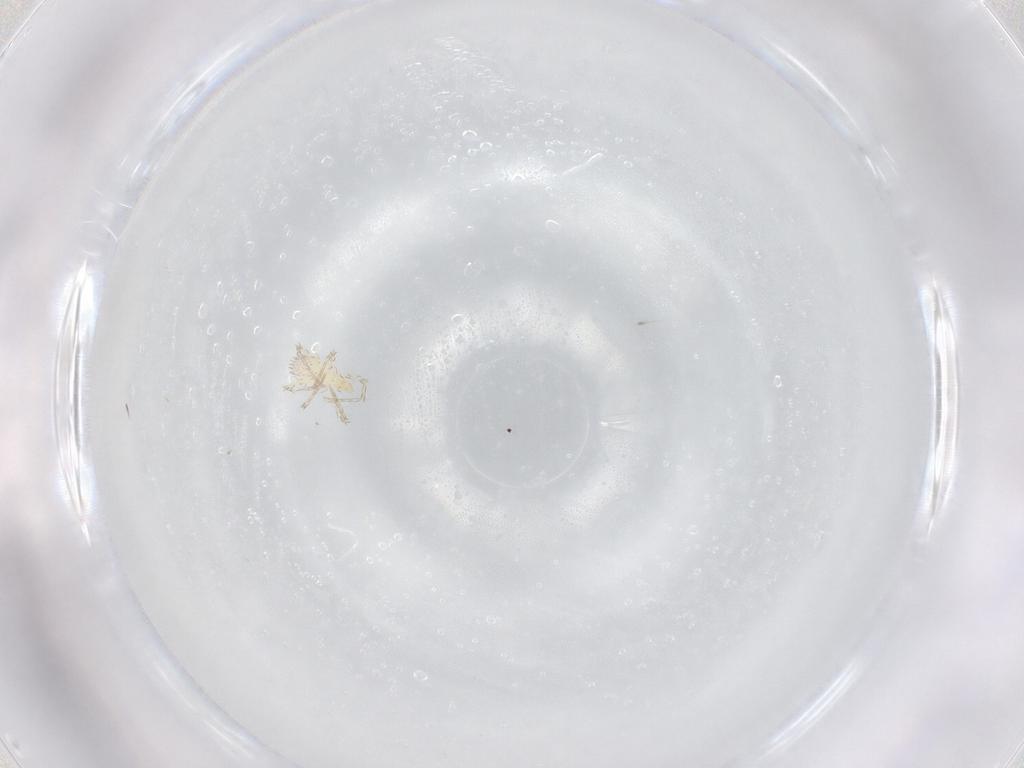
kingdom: Animalia
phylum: Arthropoda
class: Arachnida
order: Trombidiformes
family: Erythraeidae
